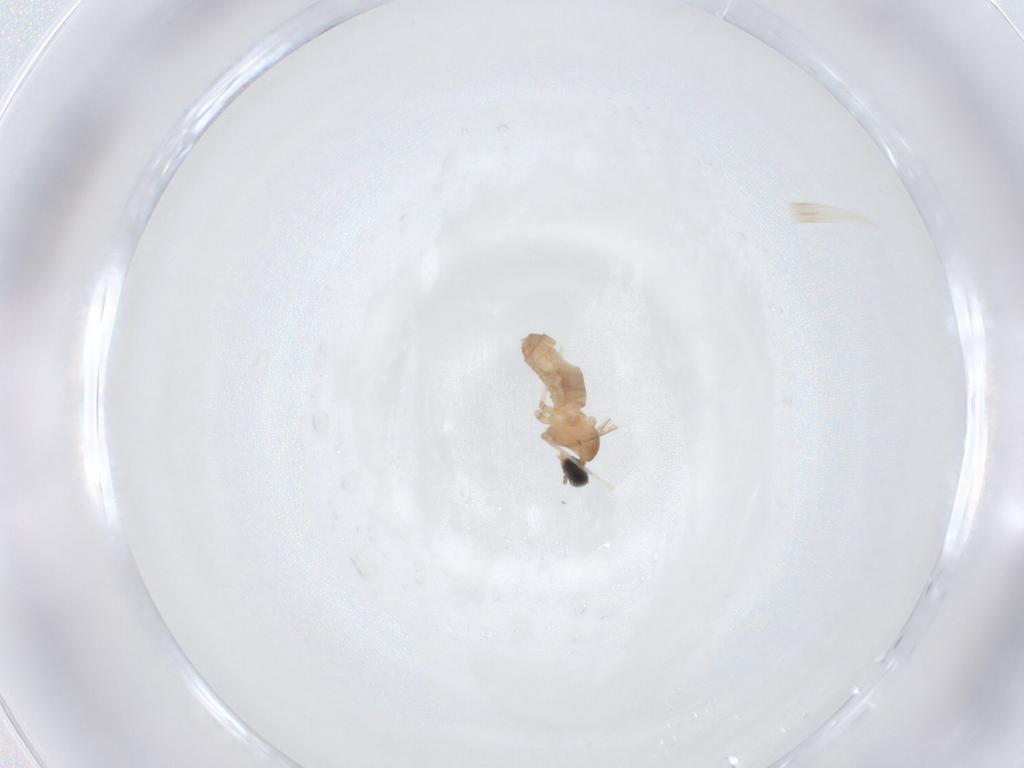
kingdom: Animalia
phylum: Arthropoda
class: Insecta
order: Diptera
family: Cecidomyiidae
